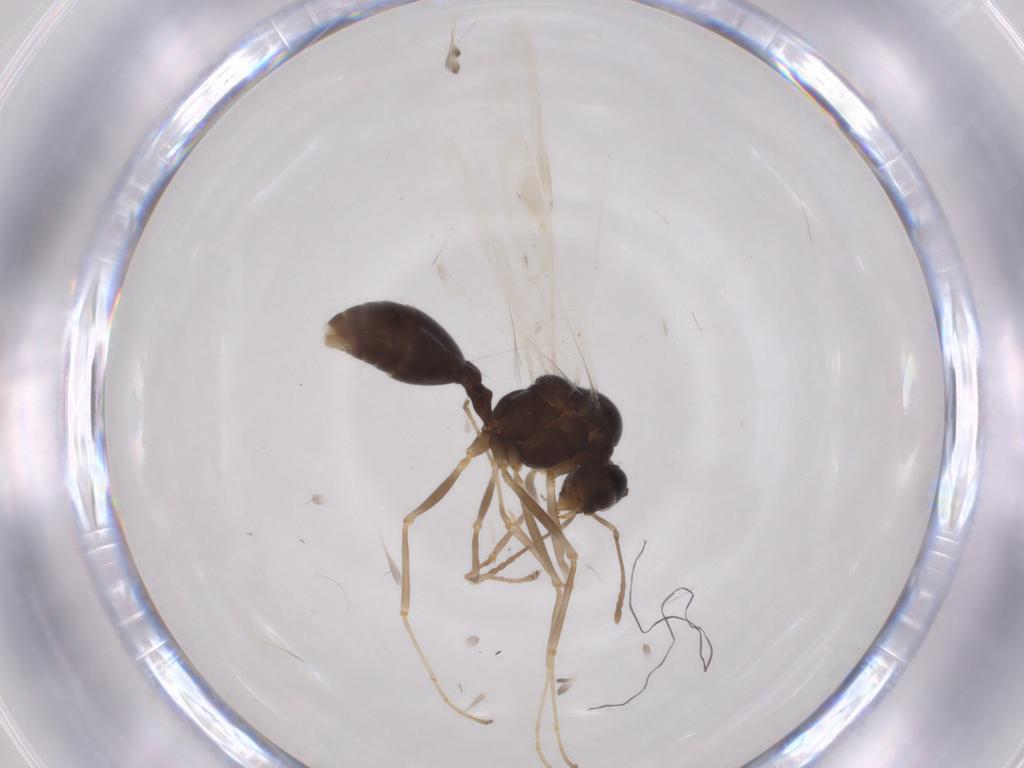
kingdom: Animalia
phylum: Arthropoda
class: Insecta
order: Hymenoptera
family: Formicidae
